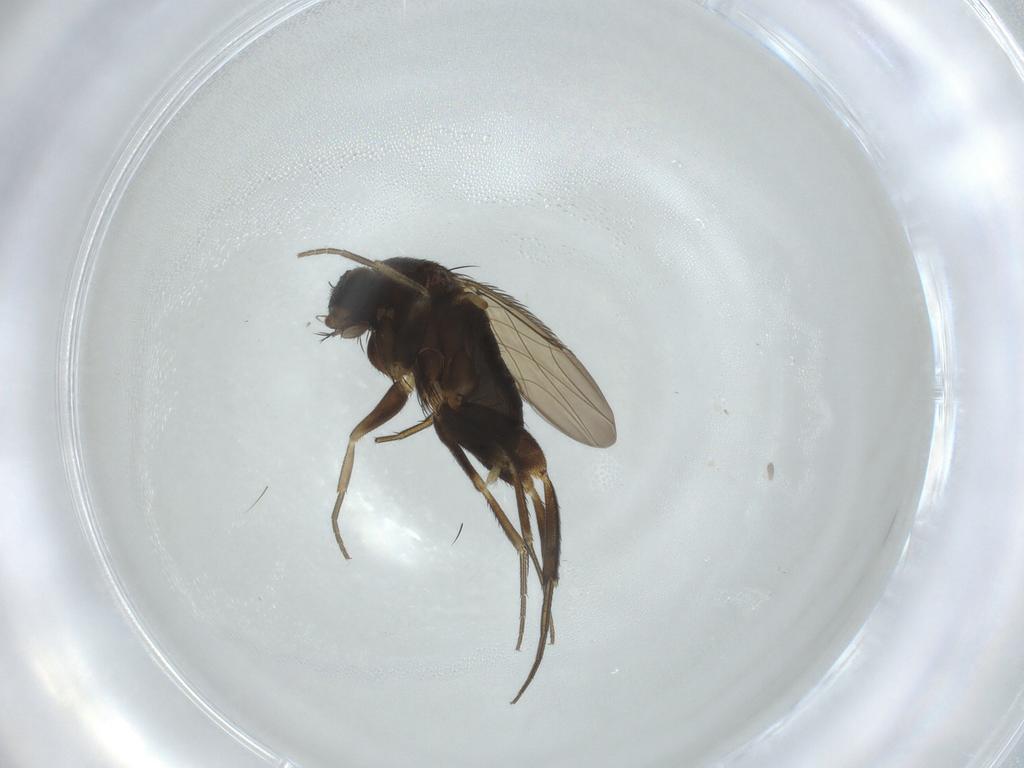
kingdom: Animalia
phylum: Arthropoda
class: Insecta
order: Diptera
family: Phoridae
